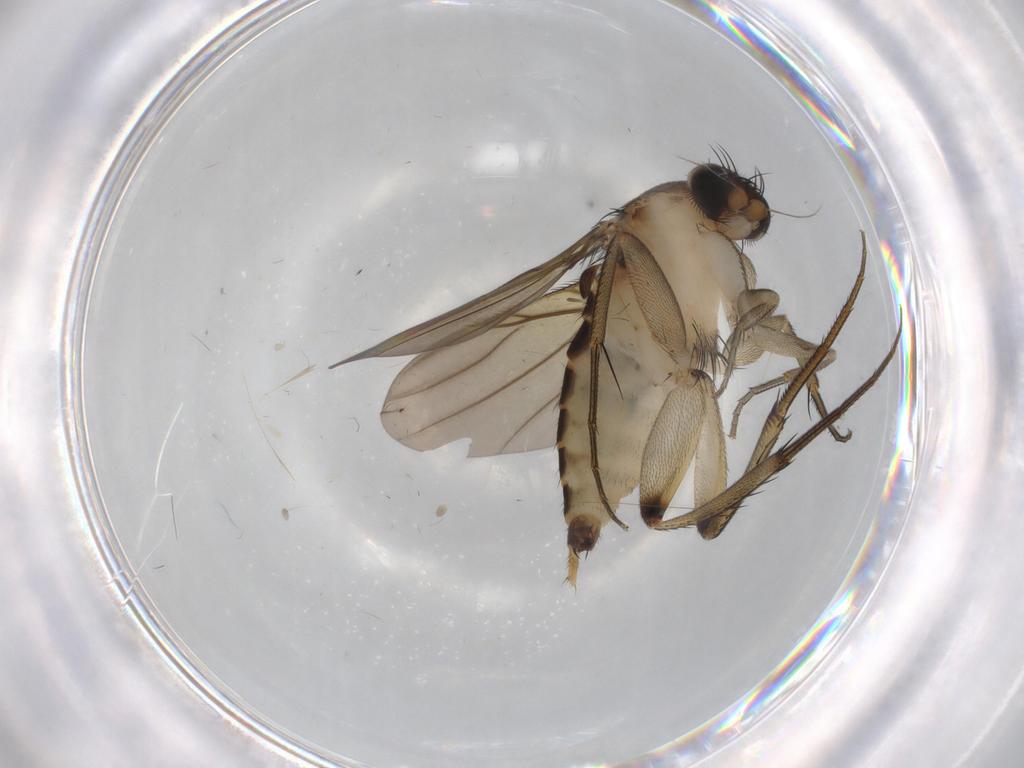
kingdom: Animalia
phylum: Arthropoda
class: Insecta
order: Diptera
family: Phoridae
